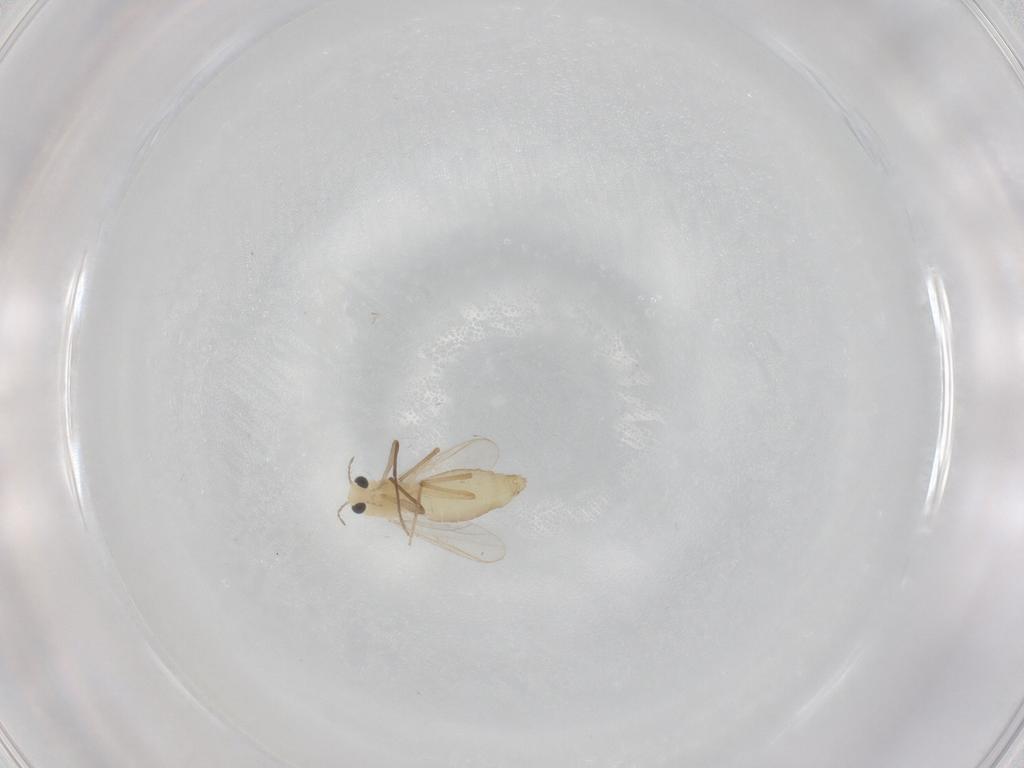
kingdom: Animalia
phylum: Arthropoda
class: Insecta
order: Diptera
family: Chironomidae
